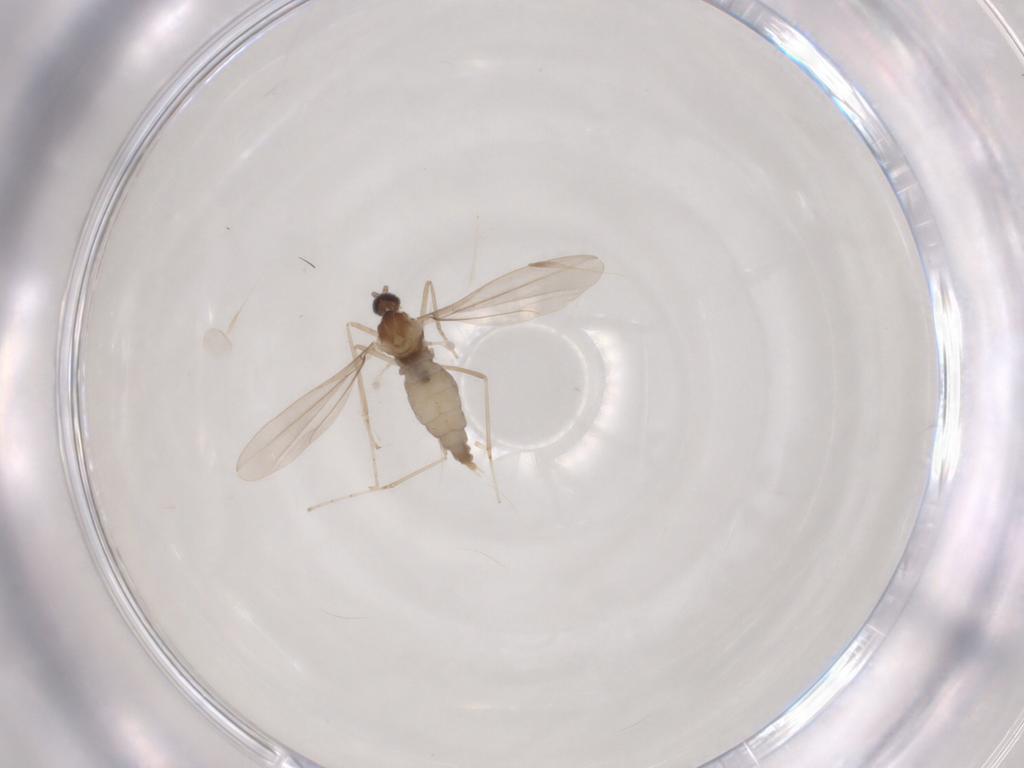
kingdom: Animalia
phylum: Arthropoda
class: Insecta
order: Diptera
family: Cecidomyiidae
